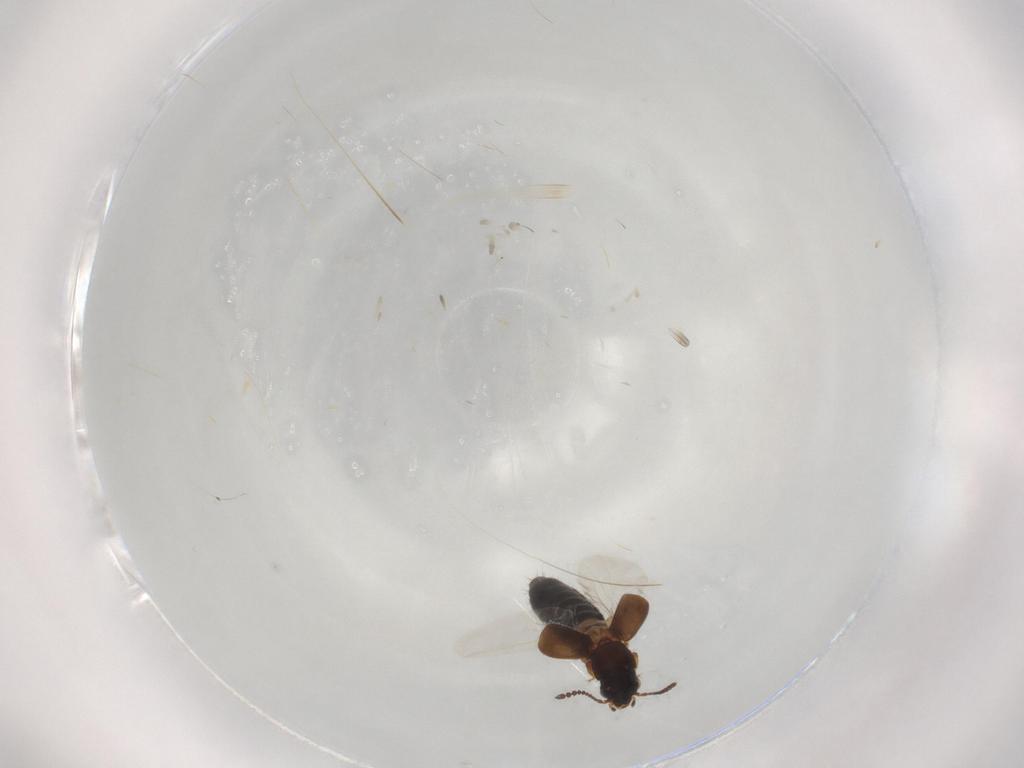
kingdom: Animalia
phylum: Arthropoda
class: Insecta
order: Coleoptera
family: Staphylinidae
